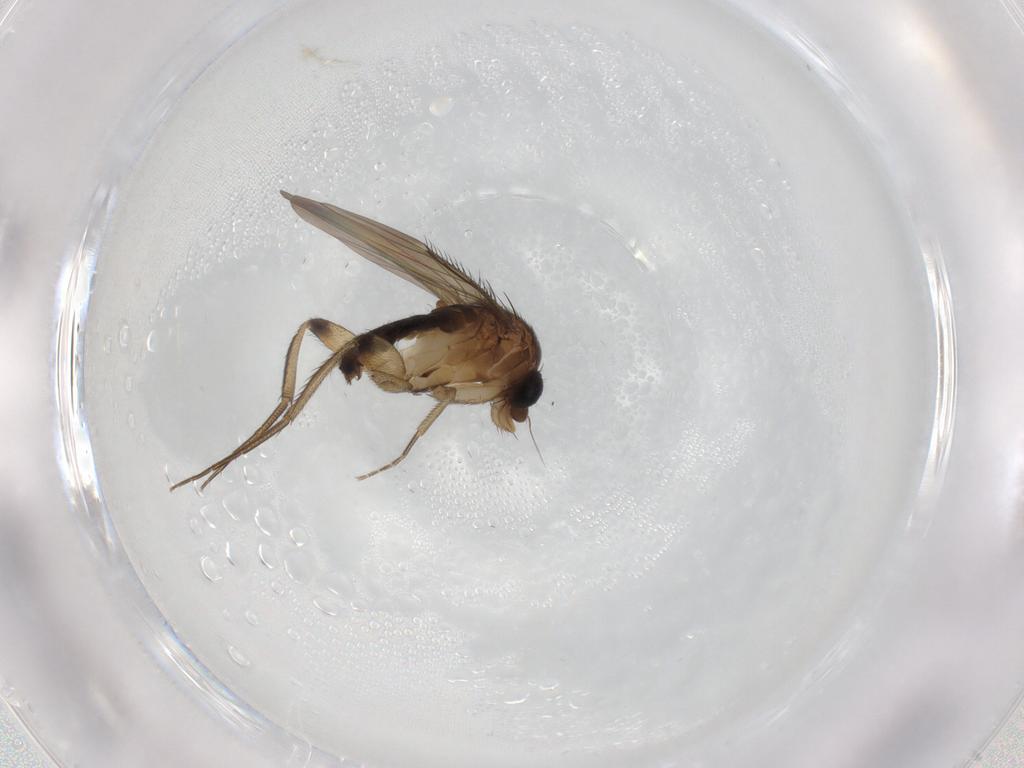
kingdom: Animalia
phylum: Arthropoda
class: Insecta
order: Diptera
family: Phoridae
